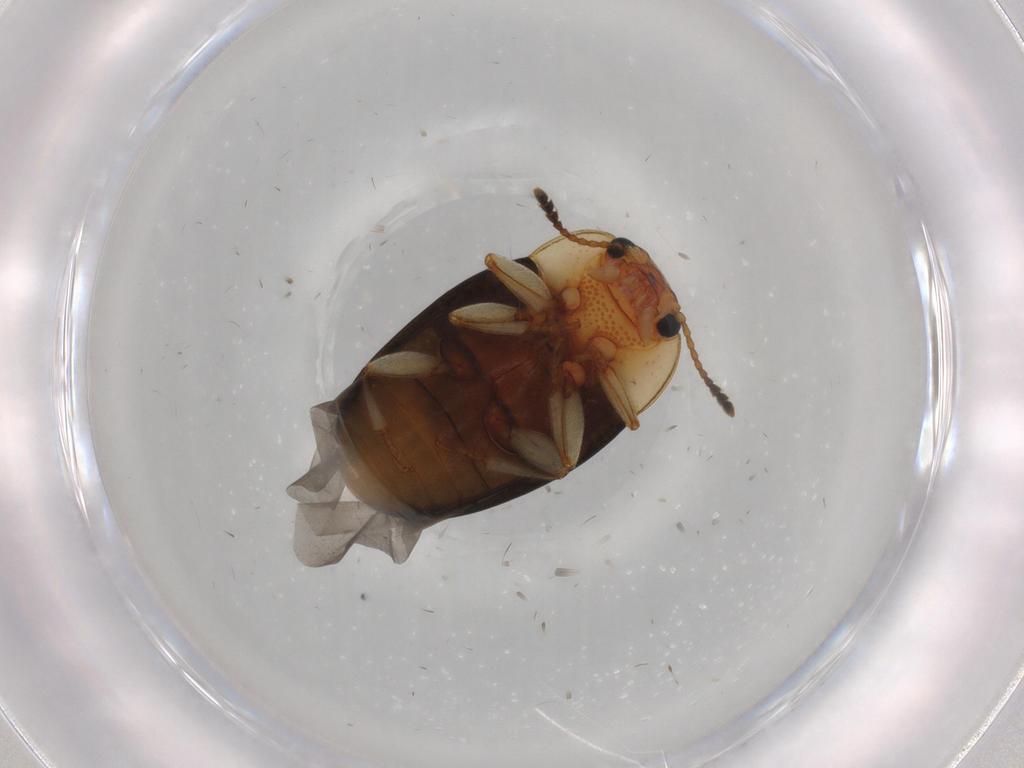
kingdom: Animalia
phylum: Arthropoda
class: Insecta
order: Coleoptera
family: Erotylidae
